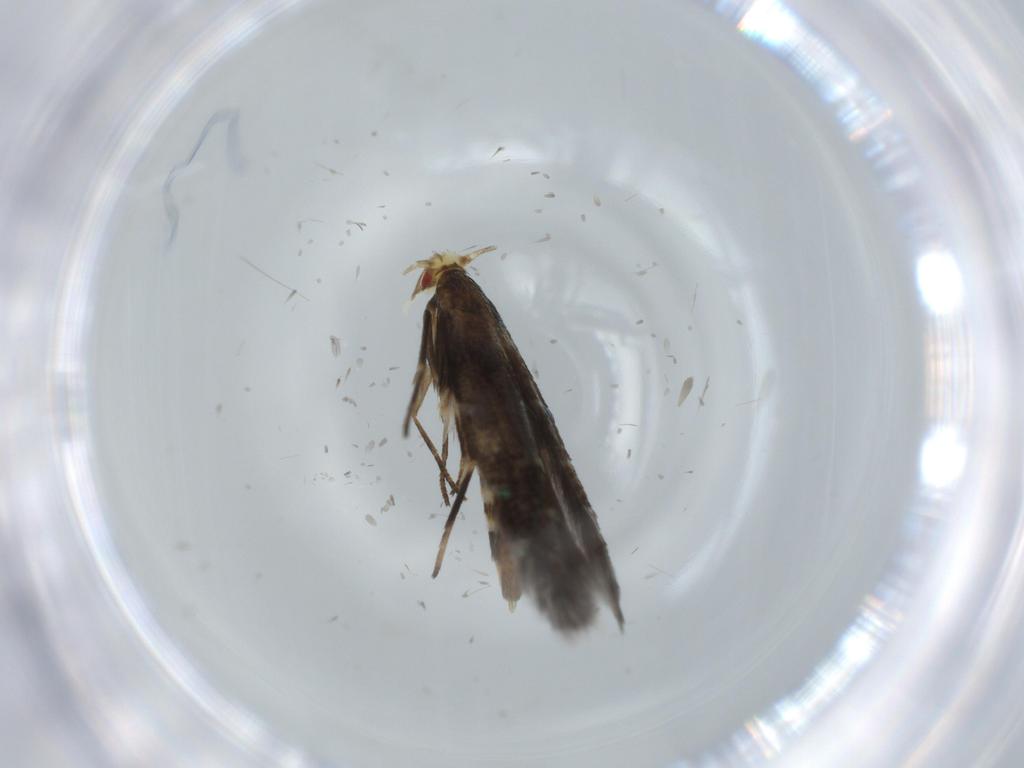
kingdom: Animalia
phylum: Arthropoda
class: Insecta
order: Lepidoptera
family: Cosmopterigidae
